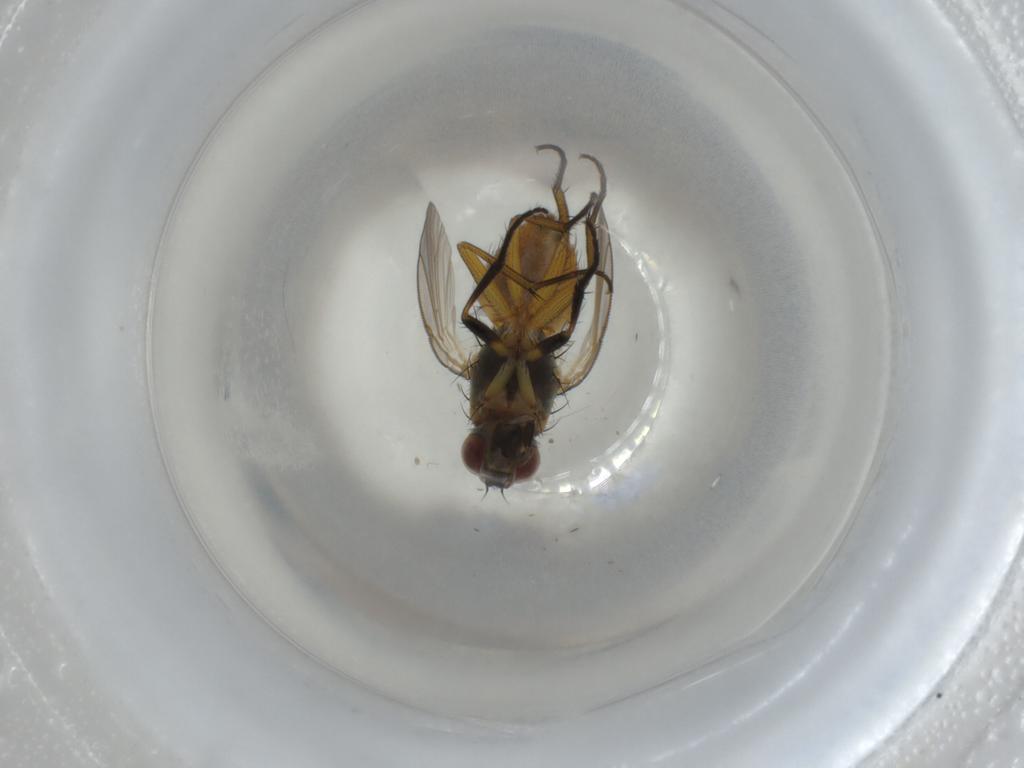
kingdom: Animalia
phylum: Arthropoda
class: Insecta
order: Diptera
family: Muscidae
